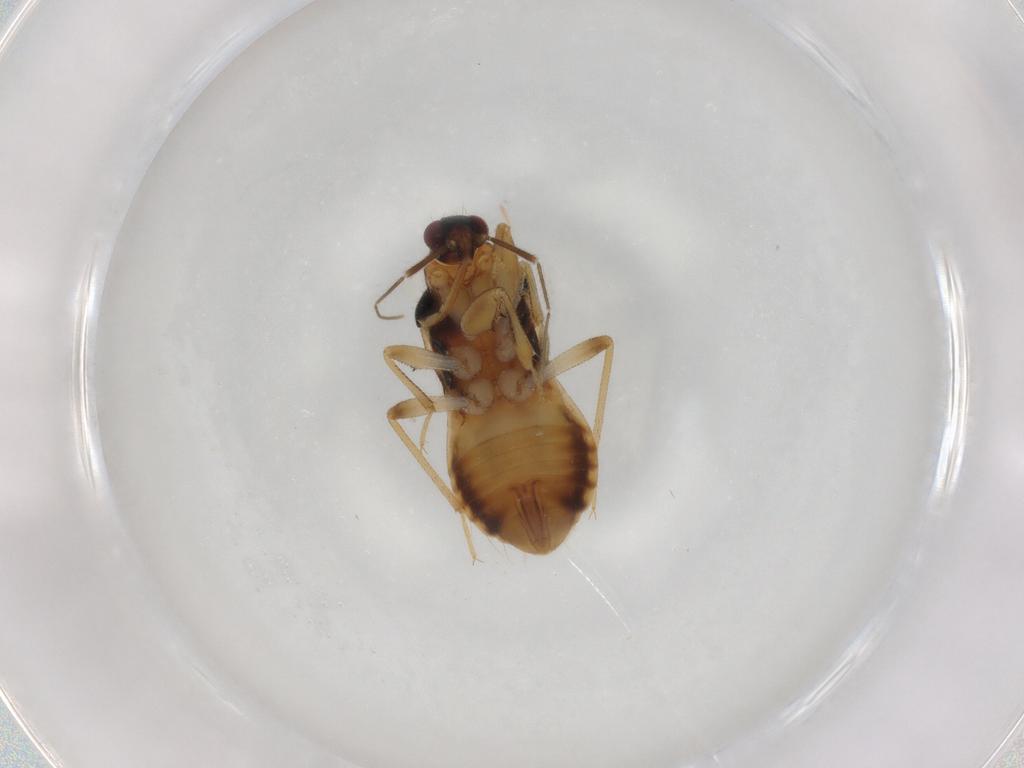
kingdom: Animalia
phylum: Arthropoda
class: Insecta
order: Hemiptera
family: Nabidae
